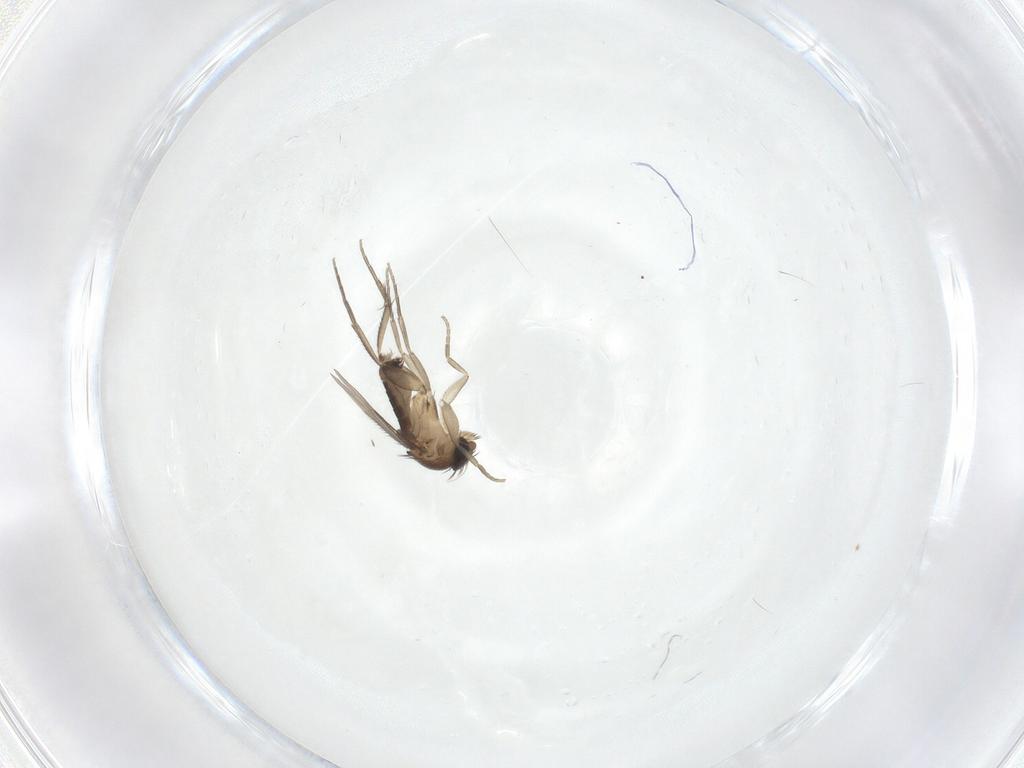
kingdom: Animalia
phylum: Arthropoda
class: Insecta
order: Diptera
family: Phoridae
